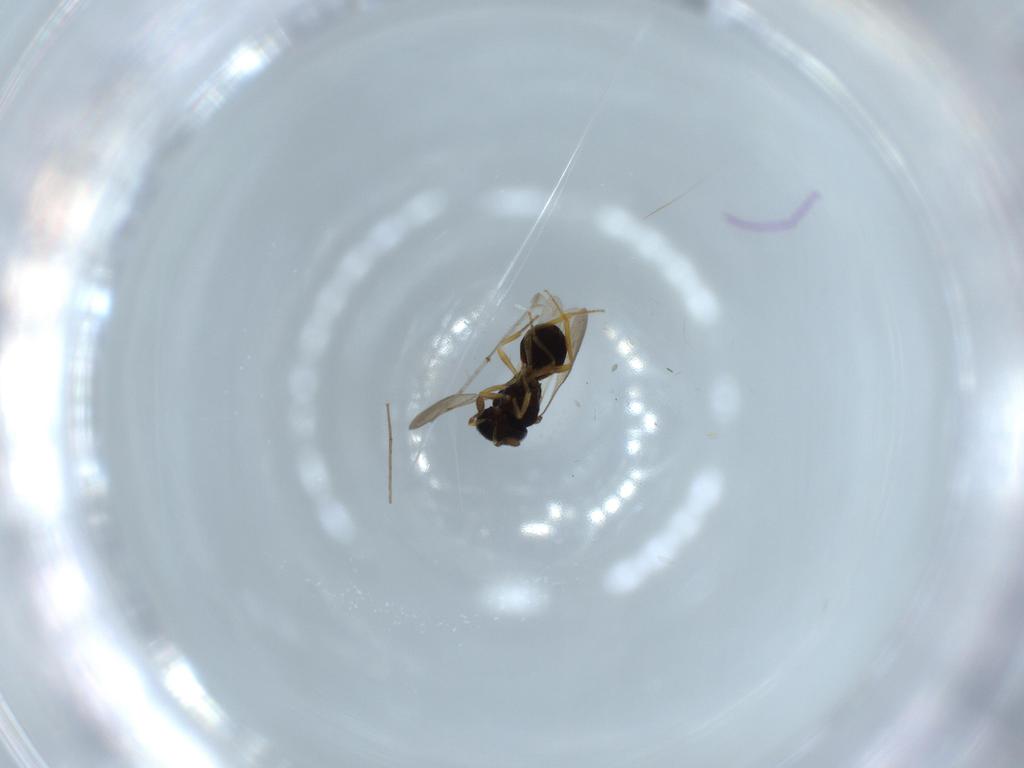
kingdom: Animalia
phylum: Arthropoda
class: Insecta
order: Hymenoptera
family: Scelionidae
